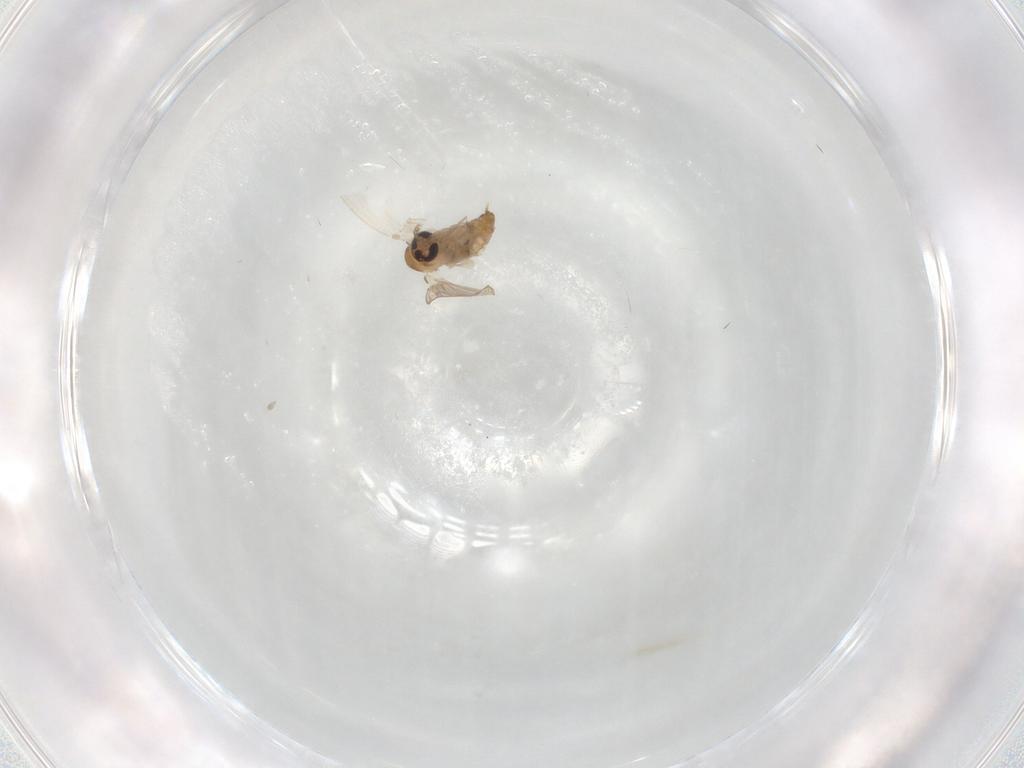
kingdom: Animalia
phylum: Arthropoda
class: Insecta
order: Diptera
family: Psychodidae
